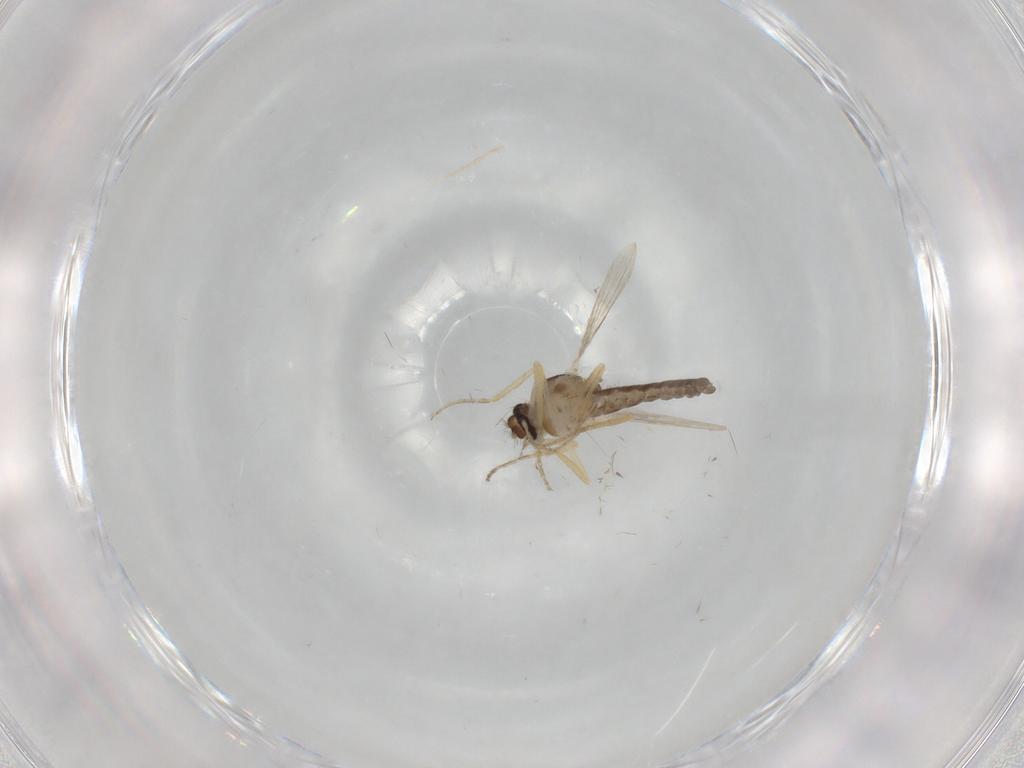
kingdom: Animalia
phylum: Arthropoda
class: Insecta
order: Diptera
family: Ceratopogonidae
